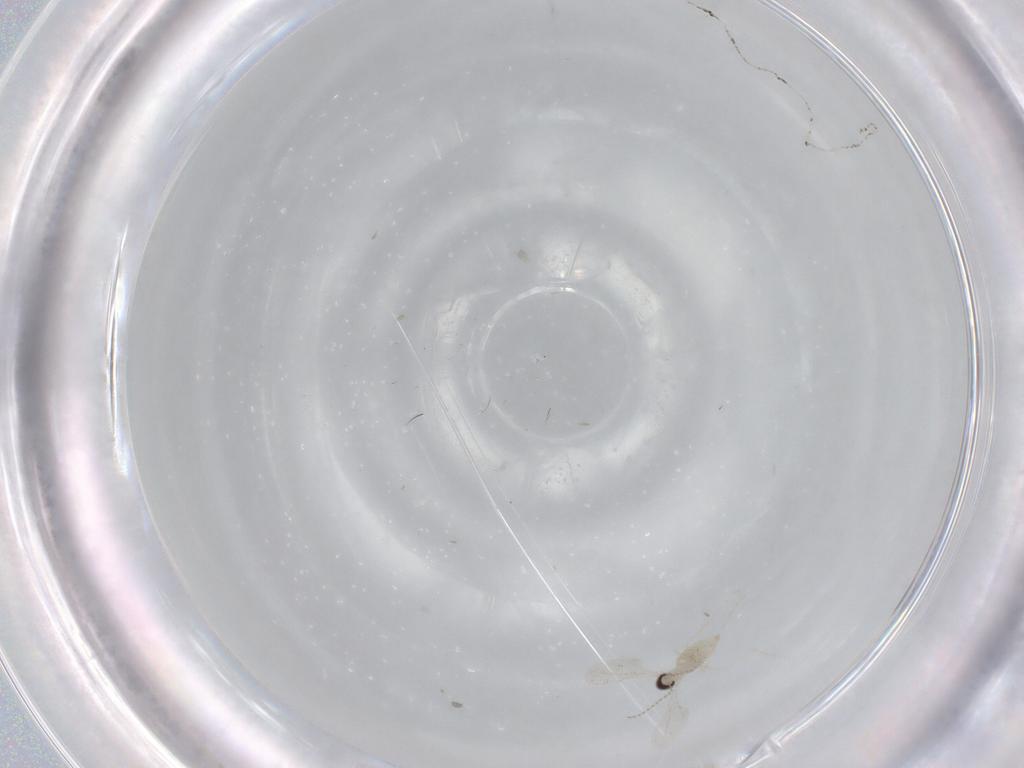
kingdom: Animalia
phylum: Arthropoda
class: Insecta
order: Diptera
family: Cecidomyiidae
